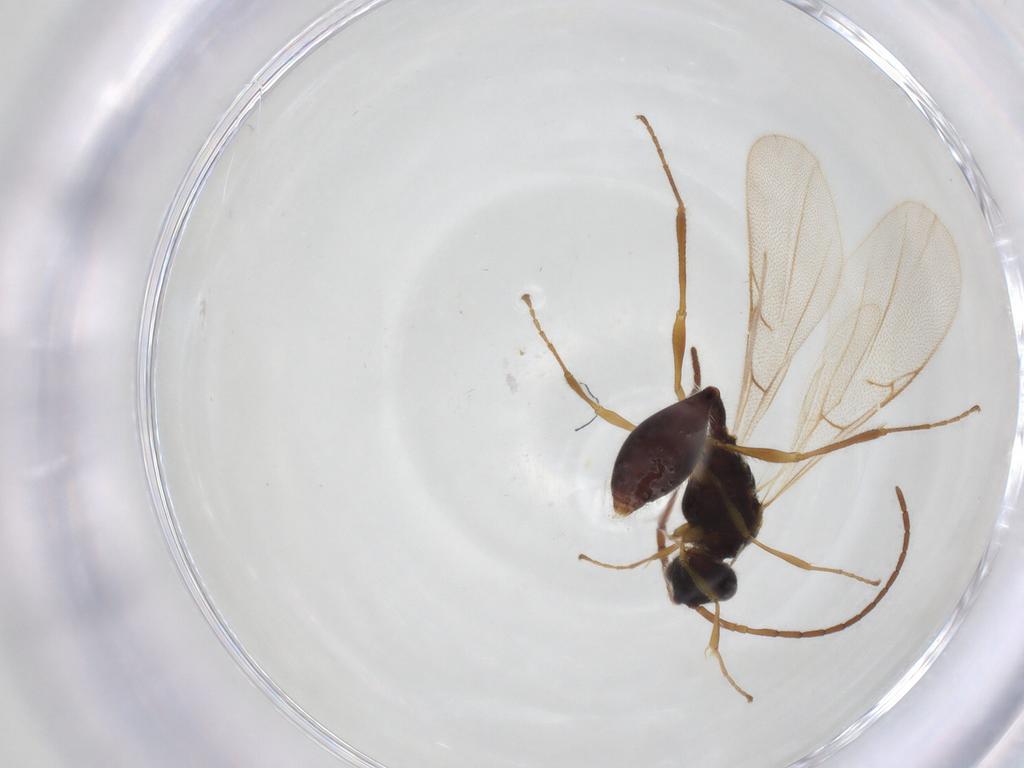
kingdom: Animalia
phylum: Arthropoda
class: Insecta
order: Hymenoptera
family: Diapriidae
